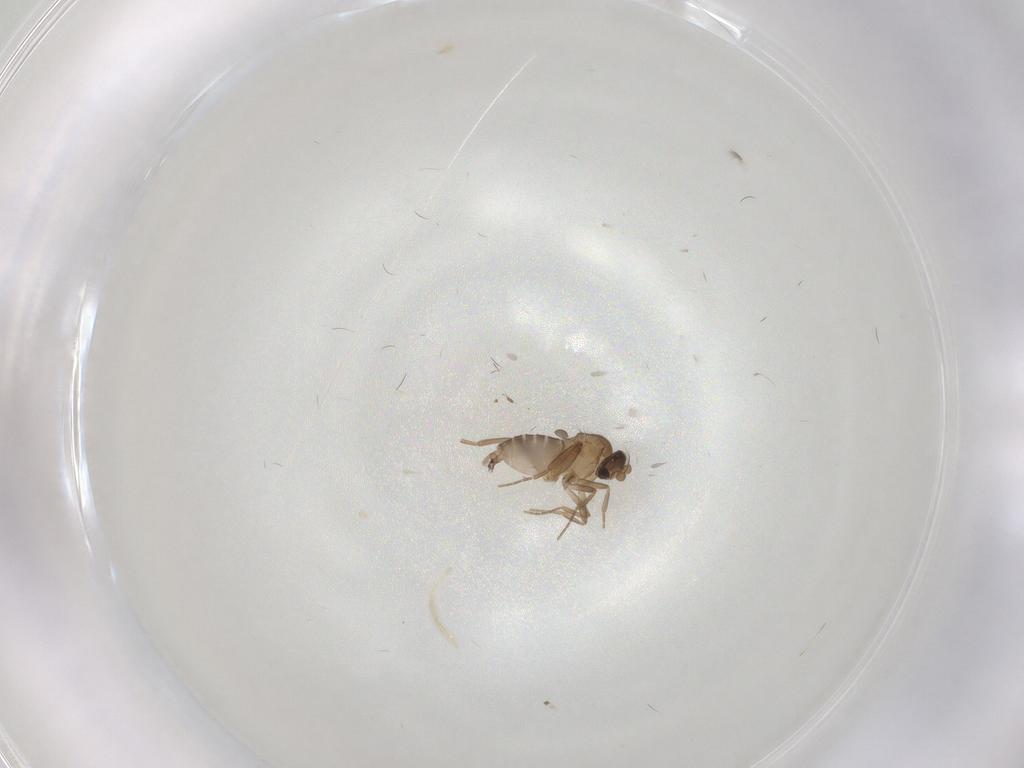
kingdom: Animalia
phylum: Arthropoda
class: Insecta
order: Diptera
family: Psychodidae
